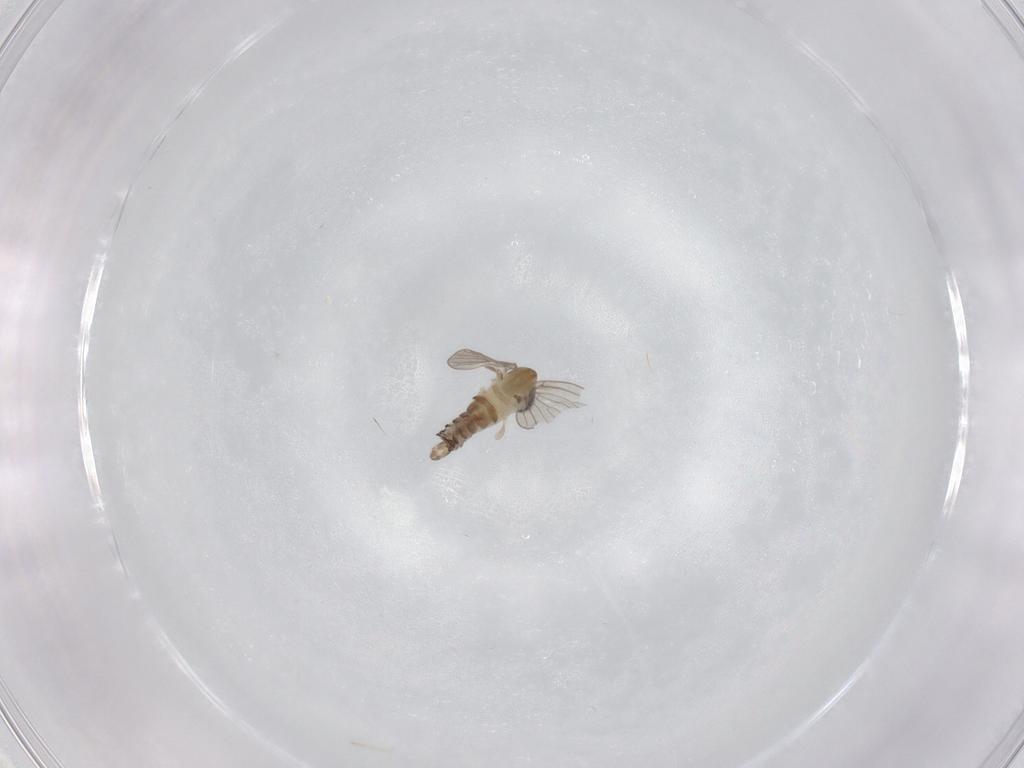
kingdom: Animalia
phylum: Arthropoda
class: Insecta
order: Diptera
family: Psychodidae
